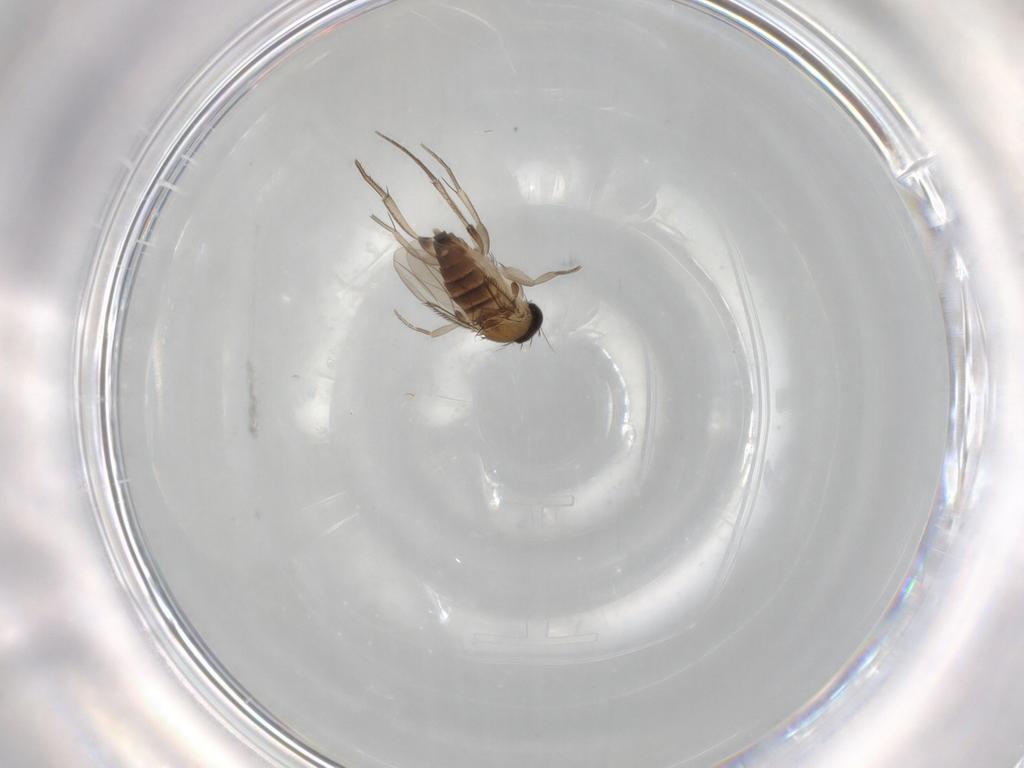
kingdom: Animalia
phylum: Arthropoda
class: Insecta
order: Diptera
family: Phoridae
